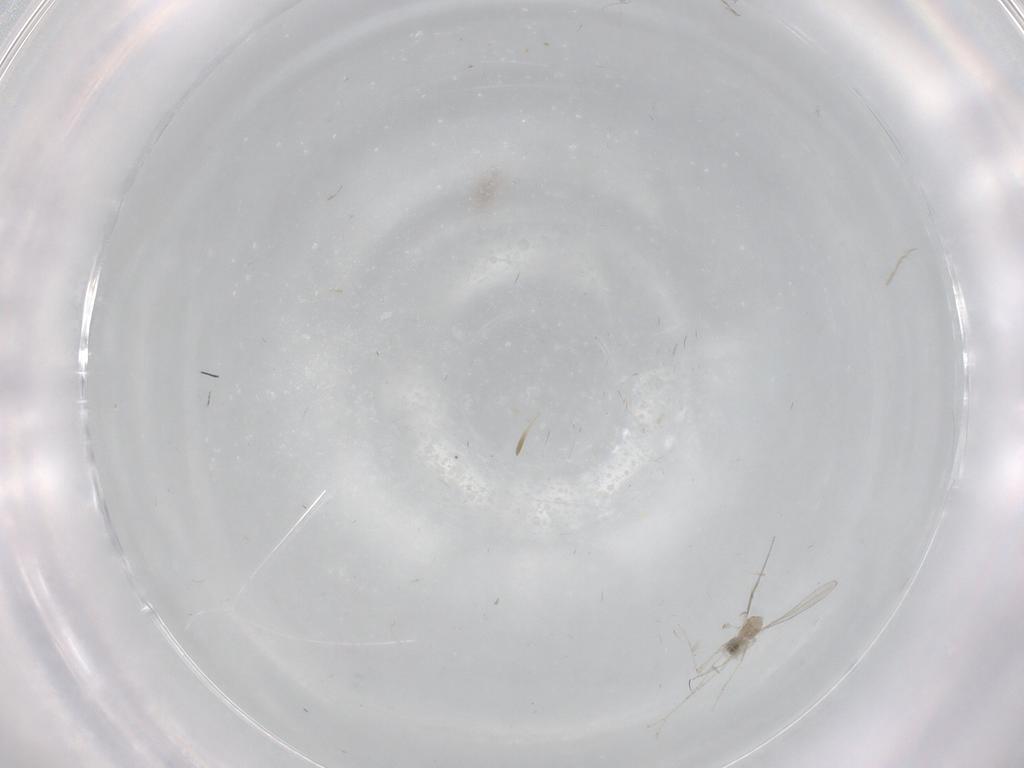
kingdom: Animalia
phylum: Arthropoda
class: Insecta
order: Diptera
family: Cecidomyiidae
